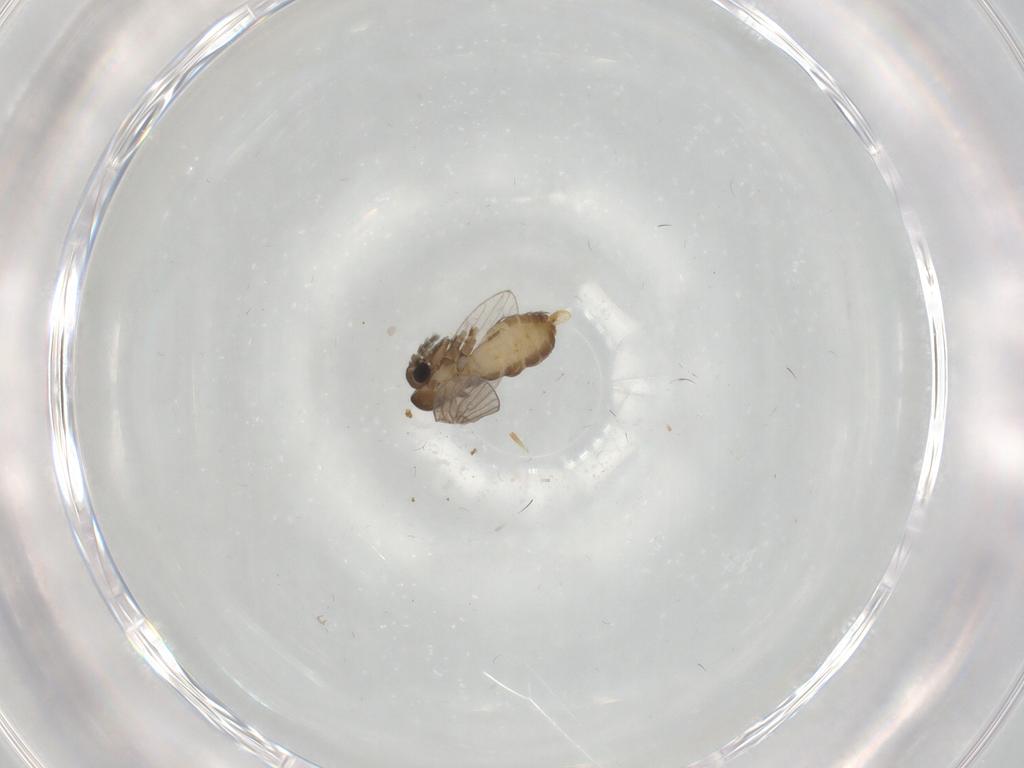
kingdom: Animalia
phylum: Arthropoda
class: Insecta
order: Diptera
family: Psychodidae
